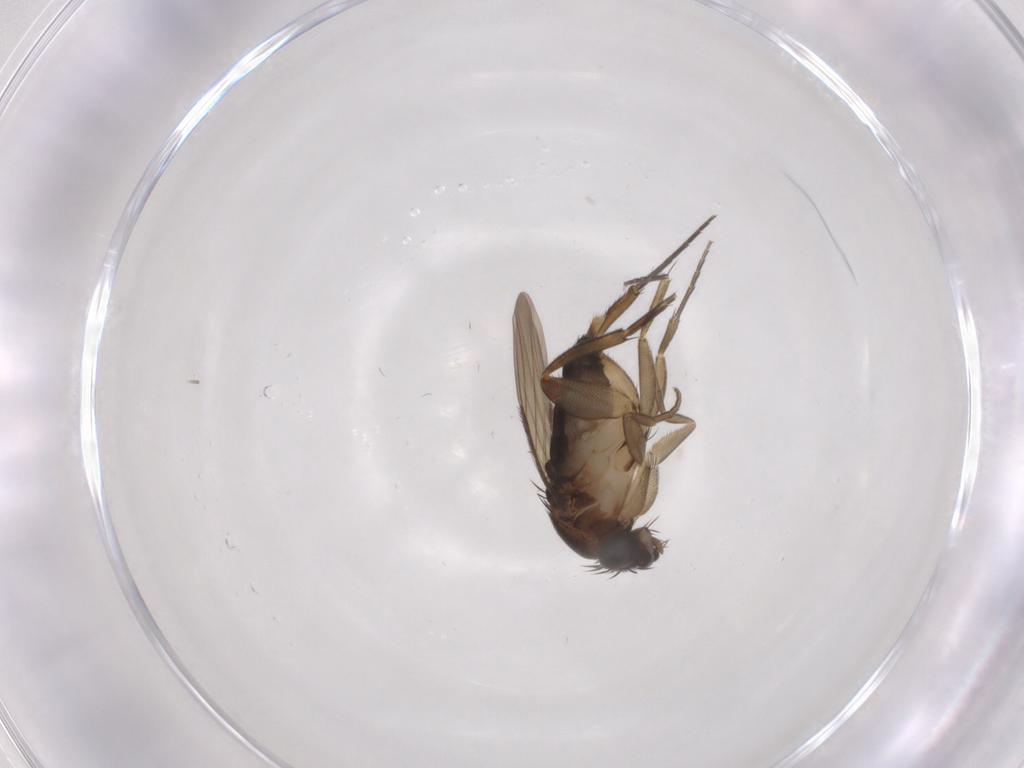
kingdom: Animalia
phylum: Arthropoda
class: Insecta
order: Diptera
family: Phoridae
